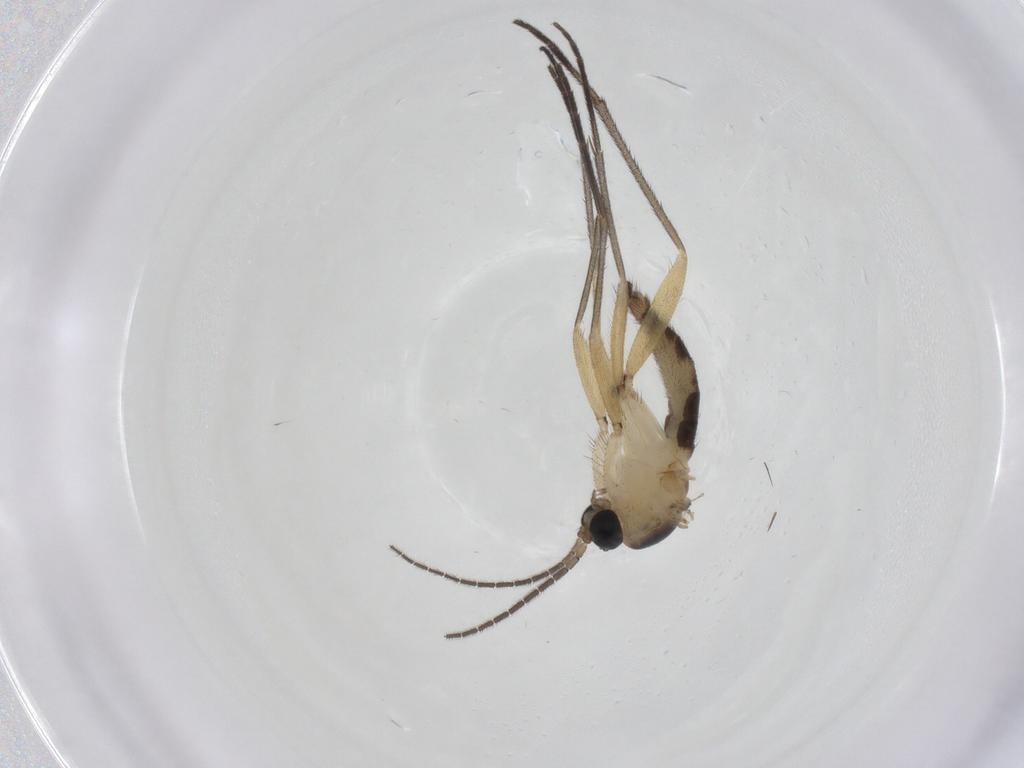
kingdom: Animalia
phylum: Arthropoda
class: Insecta
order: Diptera
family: Sciaridae
